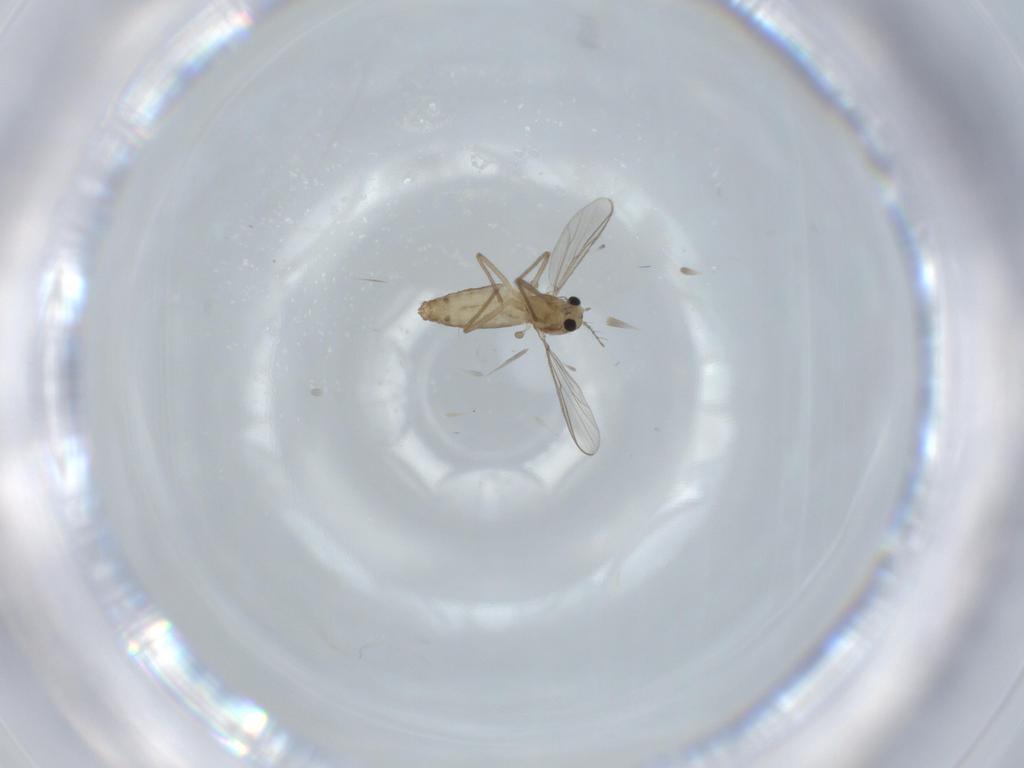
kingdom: Animalia
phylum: Arthropoda
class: Insecta
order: Diptera
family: Chironomidae
